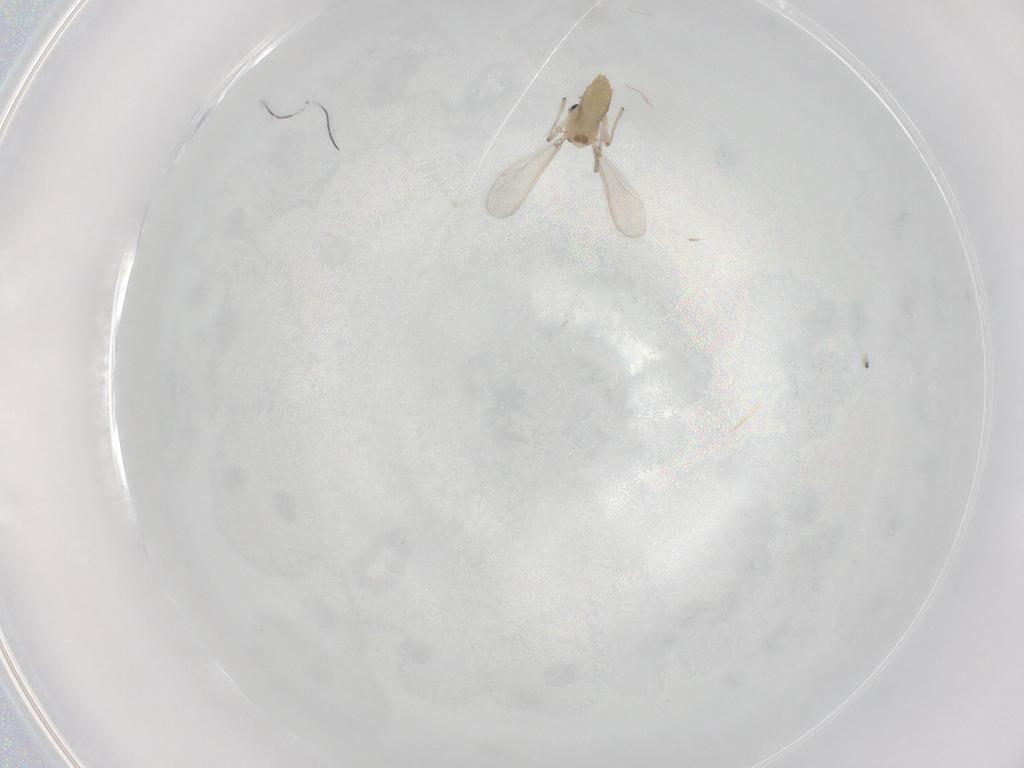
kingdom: Animalia
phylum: Arthropoda
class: Insecta
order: Diptera
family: Chironomidae
